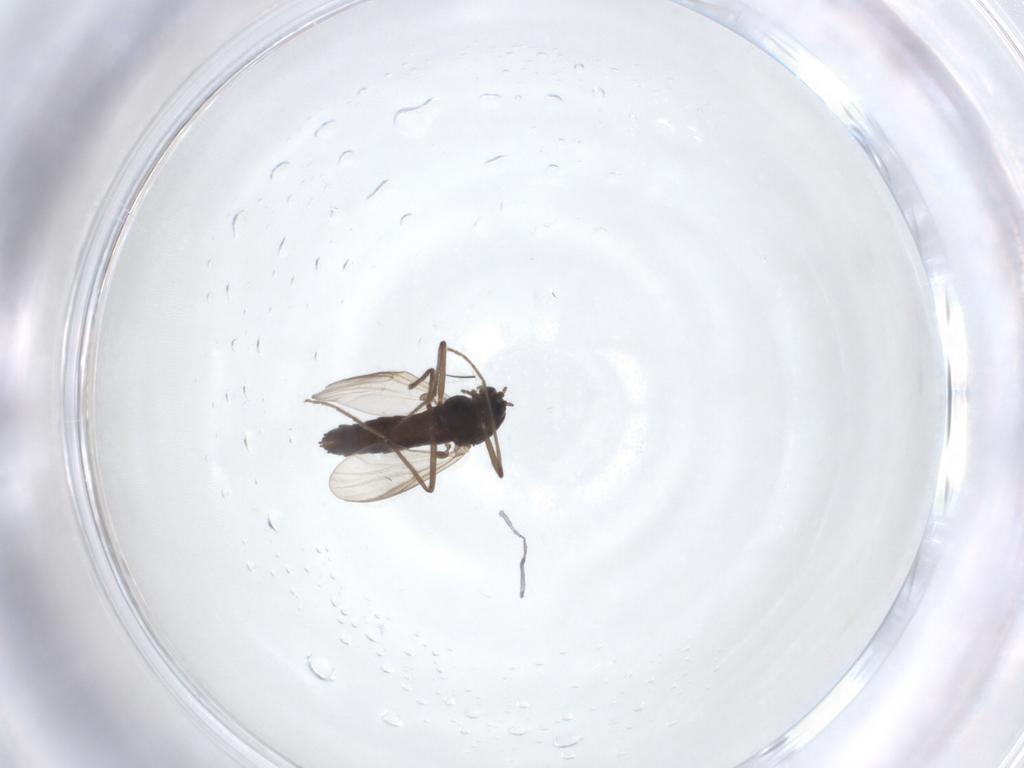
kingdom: Animalia
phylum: Arthropoda
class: Insecta
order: Diptera
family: Chironomidae
